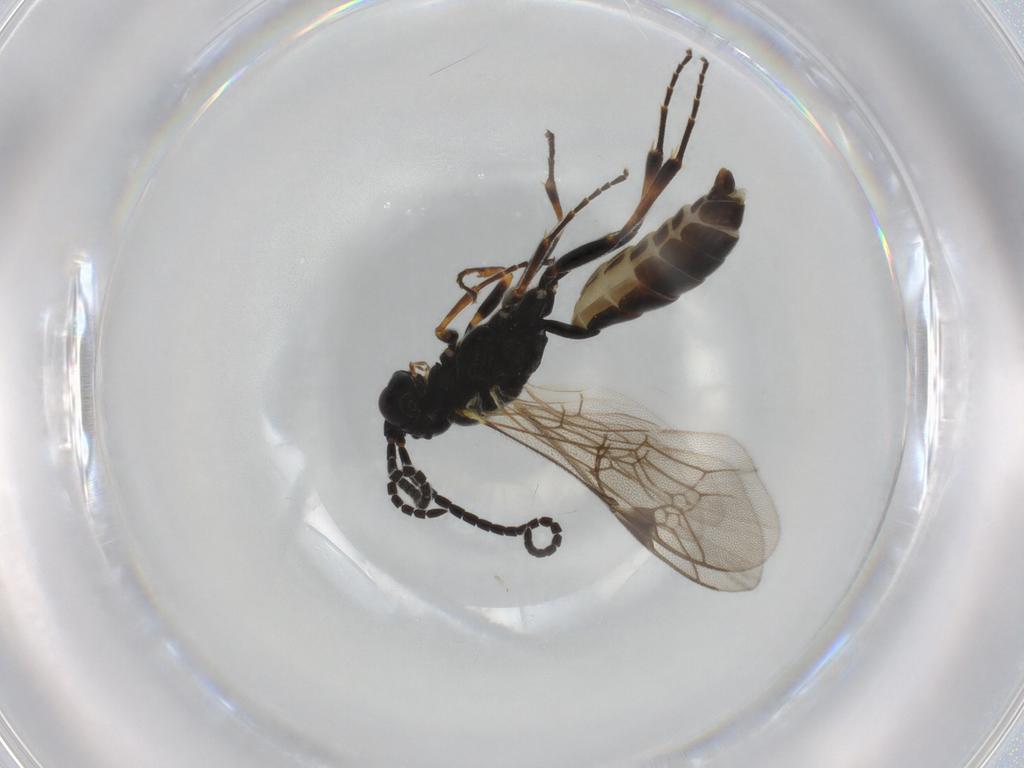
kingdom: Animalia
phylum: Arthropoda
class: Insecta
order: Hymenoptera
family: Ichneumonidae
